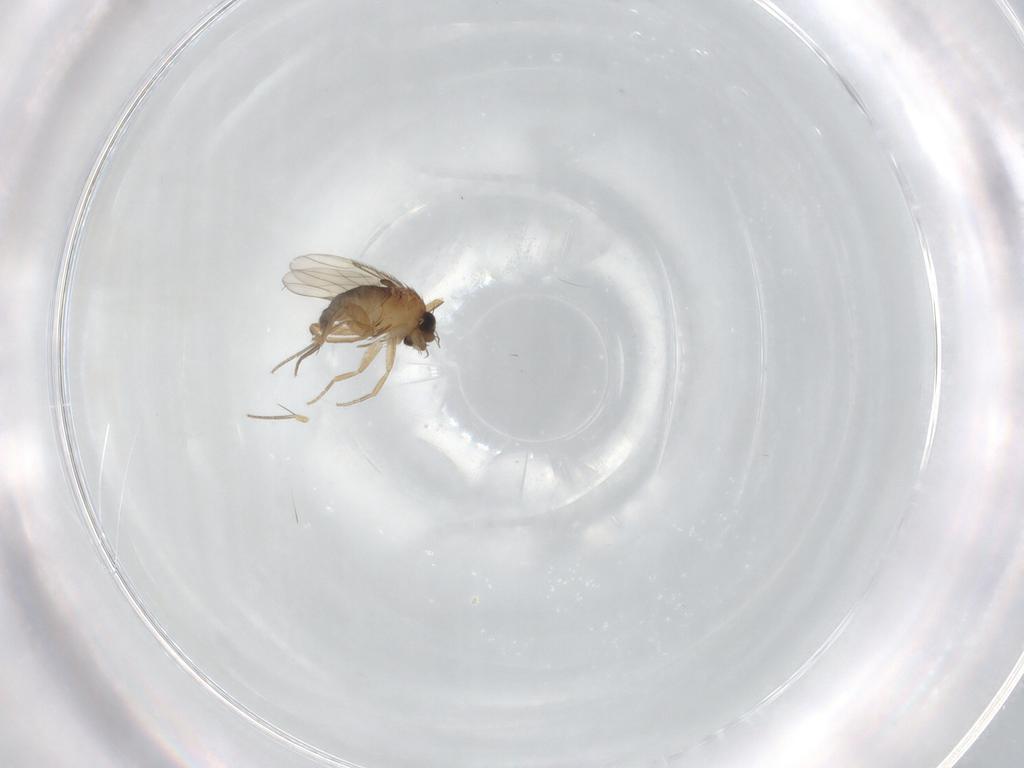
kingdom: Animalia
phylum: Arthropoda
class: Insecta
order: Diptera
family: Phoridae
